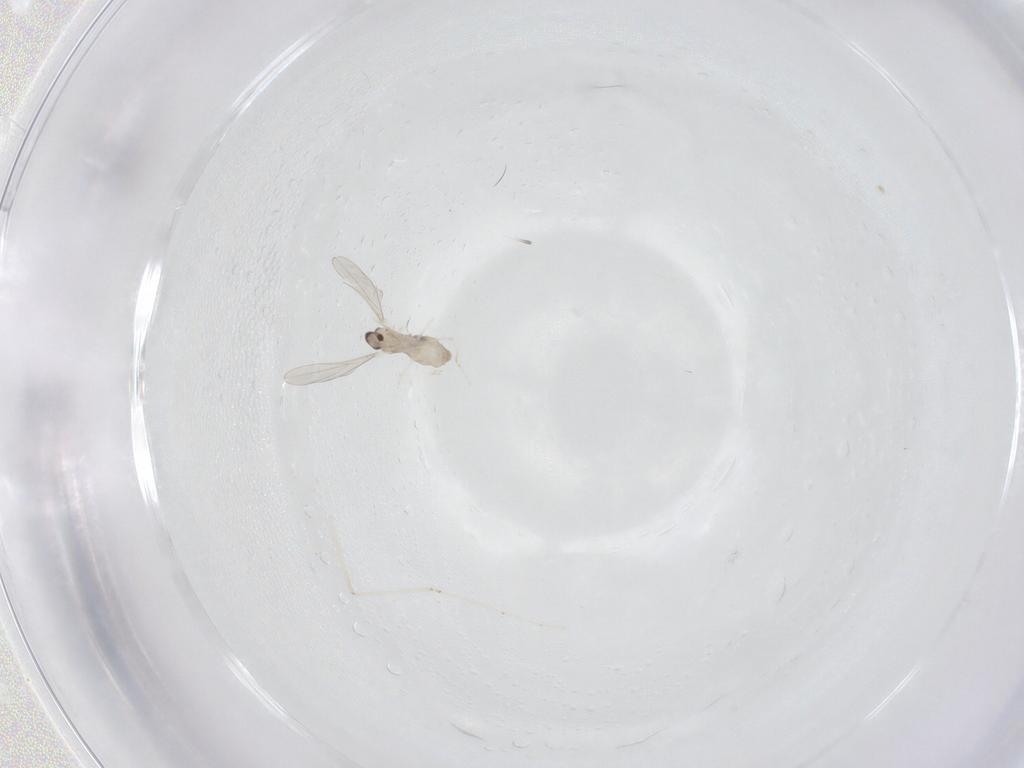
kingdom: Animalia
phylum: Arthropoda
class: Insecta
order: Diptera
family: Cecidomyiidae
